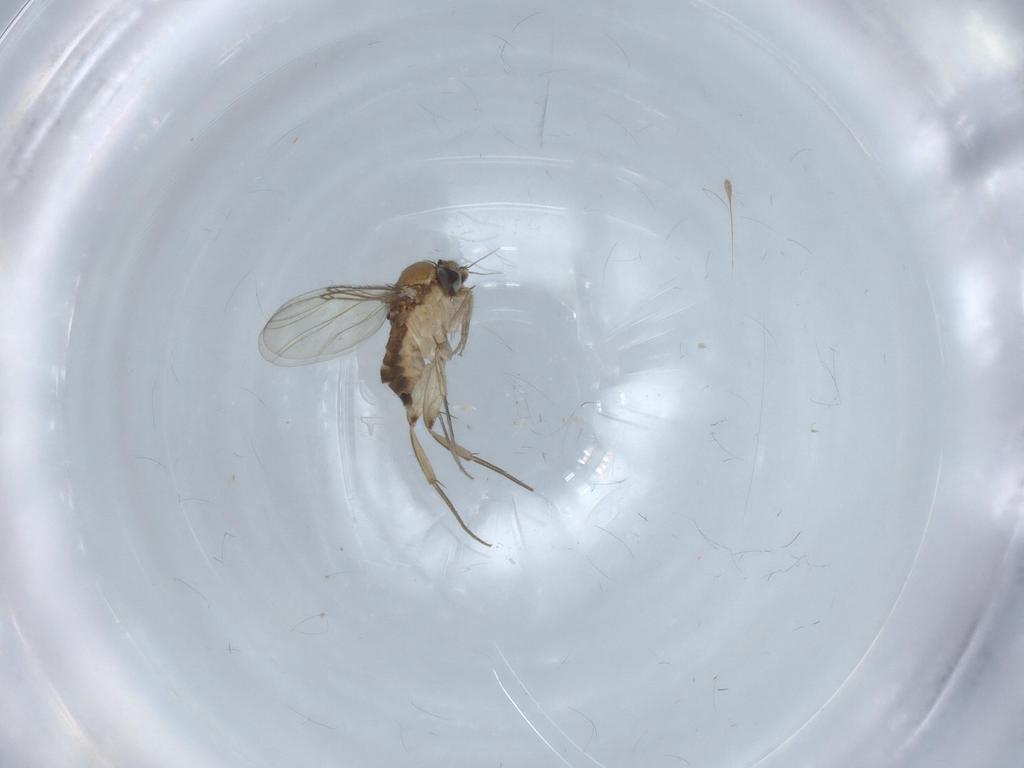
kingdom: Animalia
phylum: Arthropoda
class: Insecta
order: Diptera
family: Phoridae
